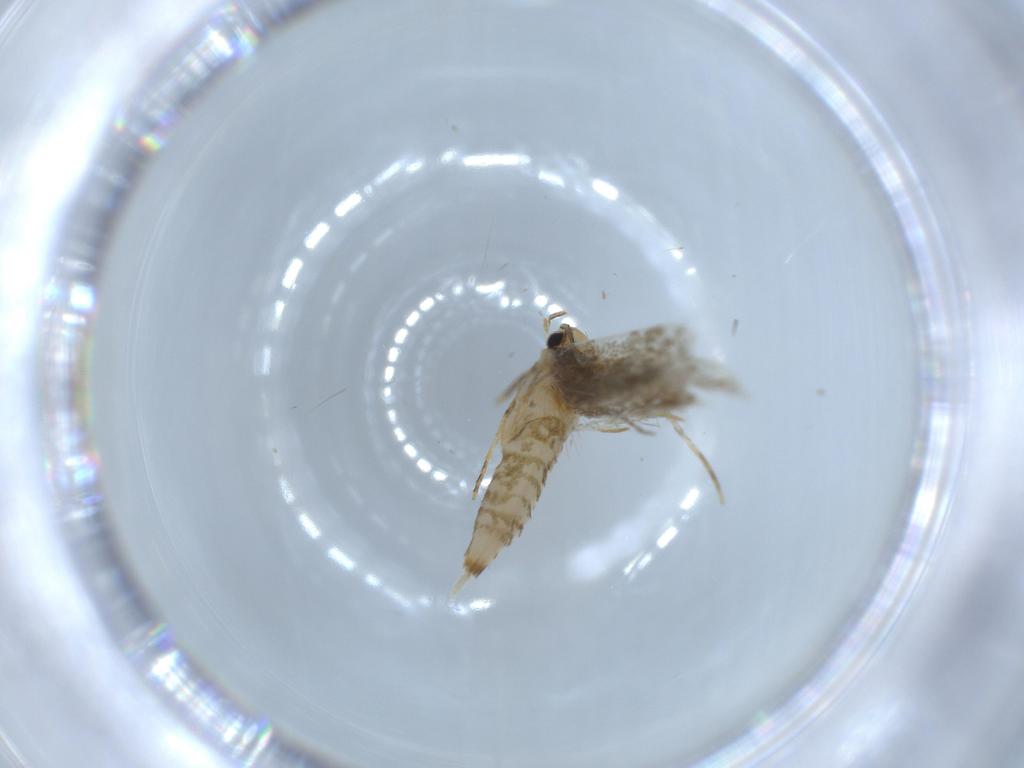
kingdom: Animalia
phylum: Arthropoda
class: Insecta
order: Lepidoptera
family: Tineidae
